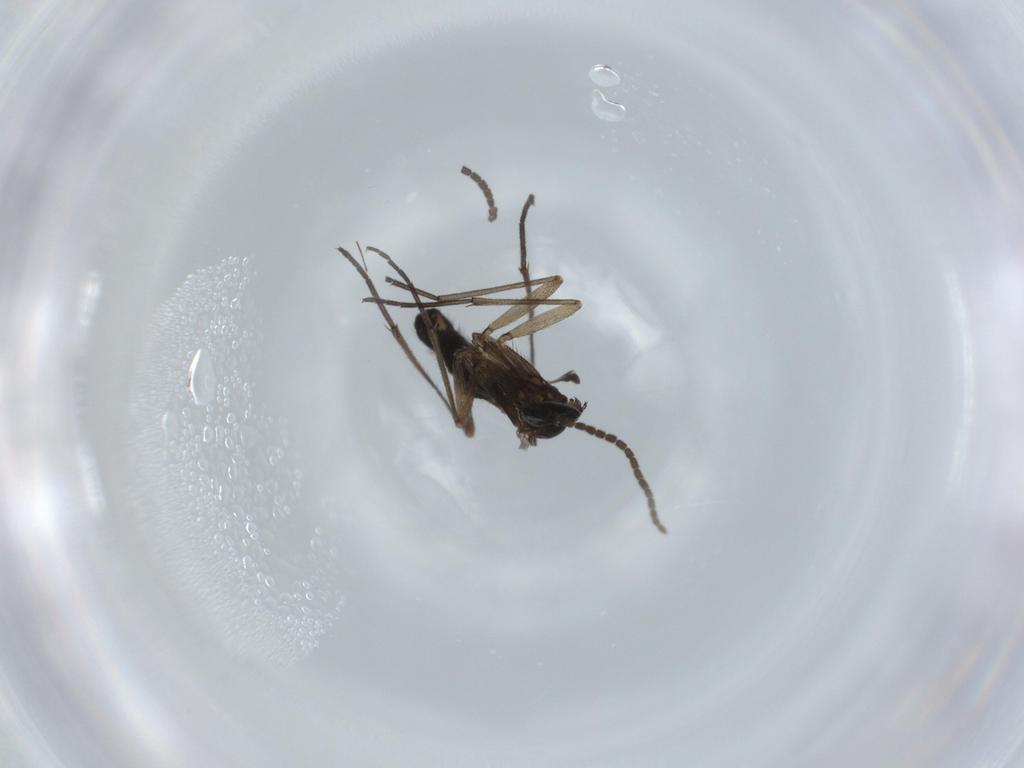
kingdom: Animalia
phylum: Arthropoda
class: Insecta
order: Diptera
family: Sciaridae
